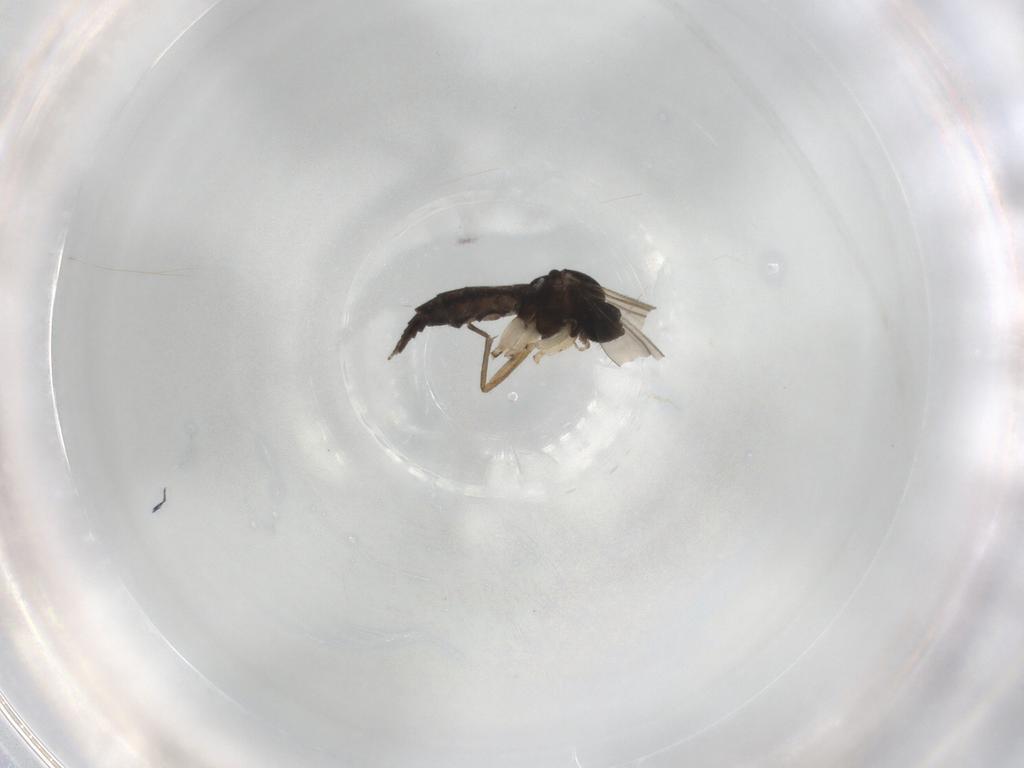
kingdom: Animalia
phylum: Arthropoda
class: Insecta
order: Diptera
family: Sciaridae
